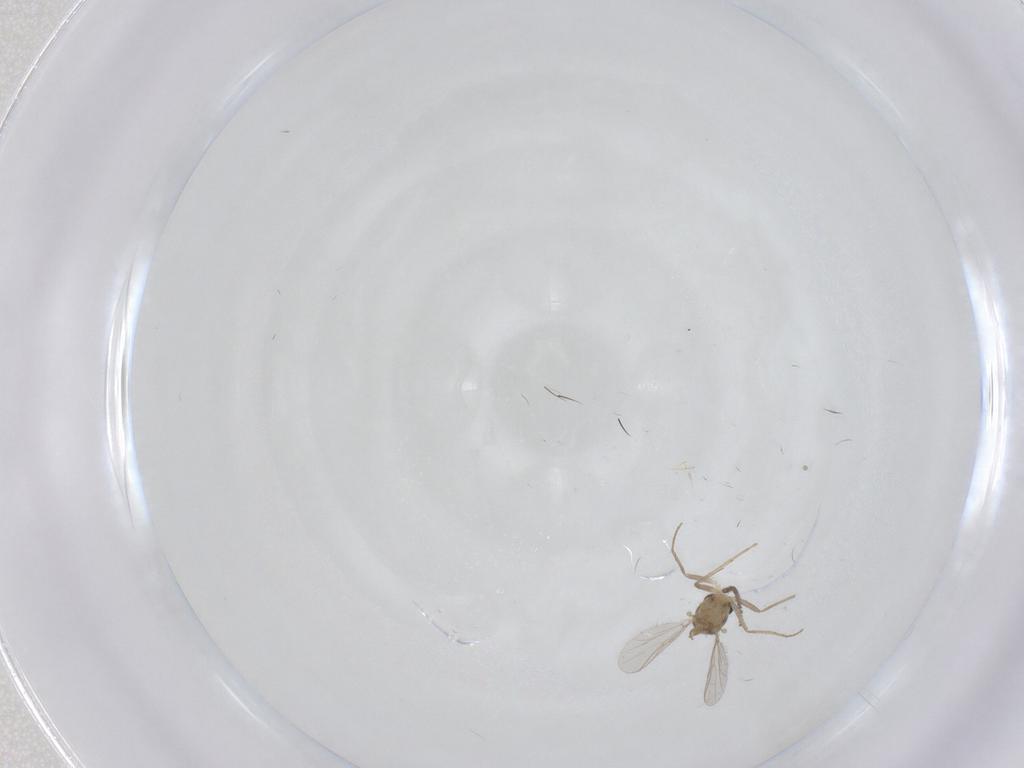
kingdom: Animalia
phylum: Arthropoda
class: Insecta
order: Diptera
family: Chironomidae
